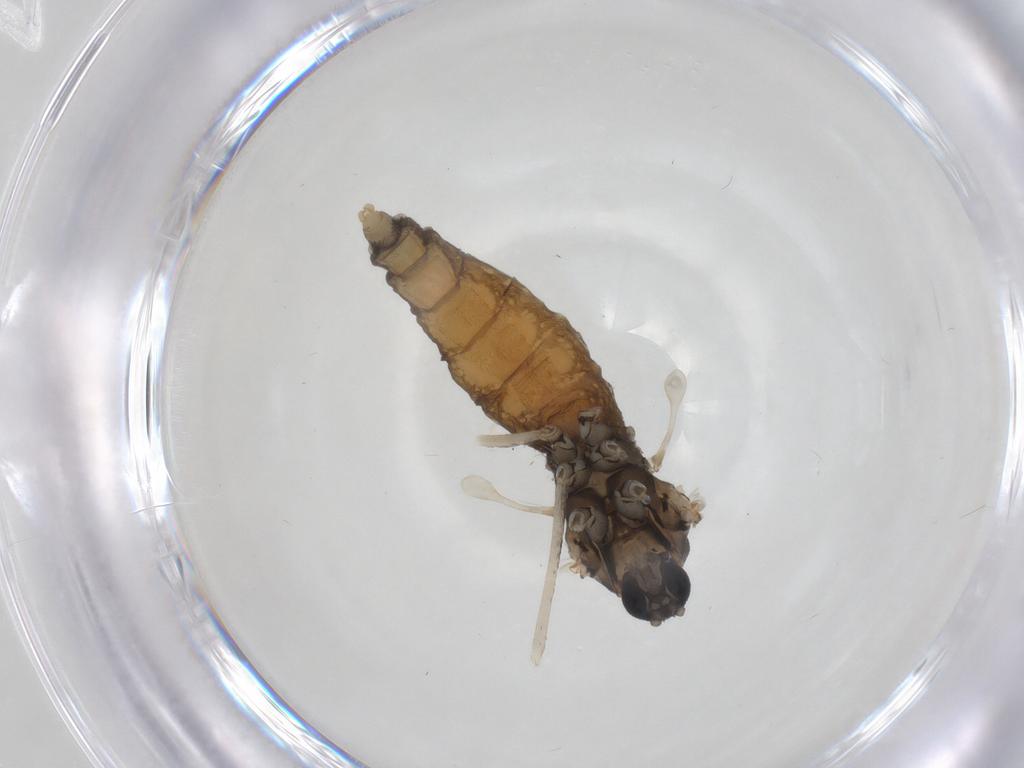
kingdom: Animalia
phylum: Arthropoda
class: Insecta
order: Diptera
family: Cecidomyiidae
